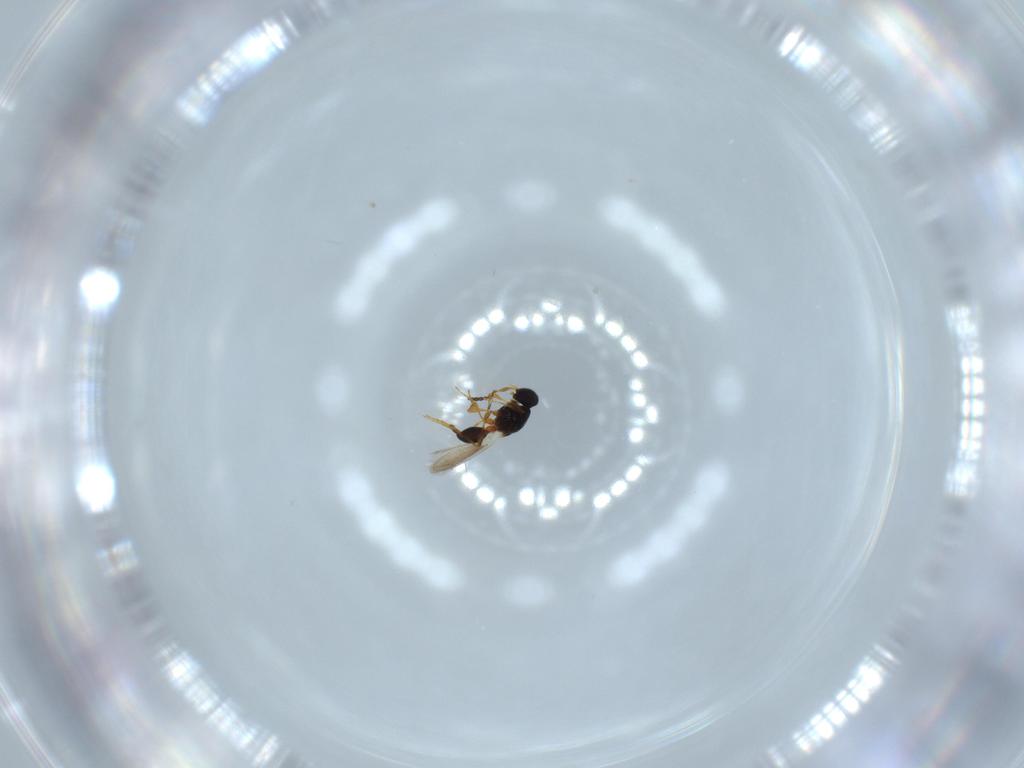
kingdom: Animalia
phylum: Arthropoda
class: Insecta
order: Hymenoptera
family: Platygastridae
